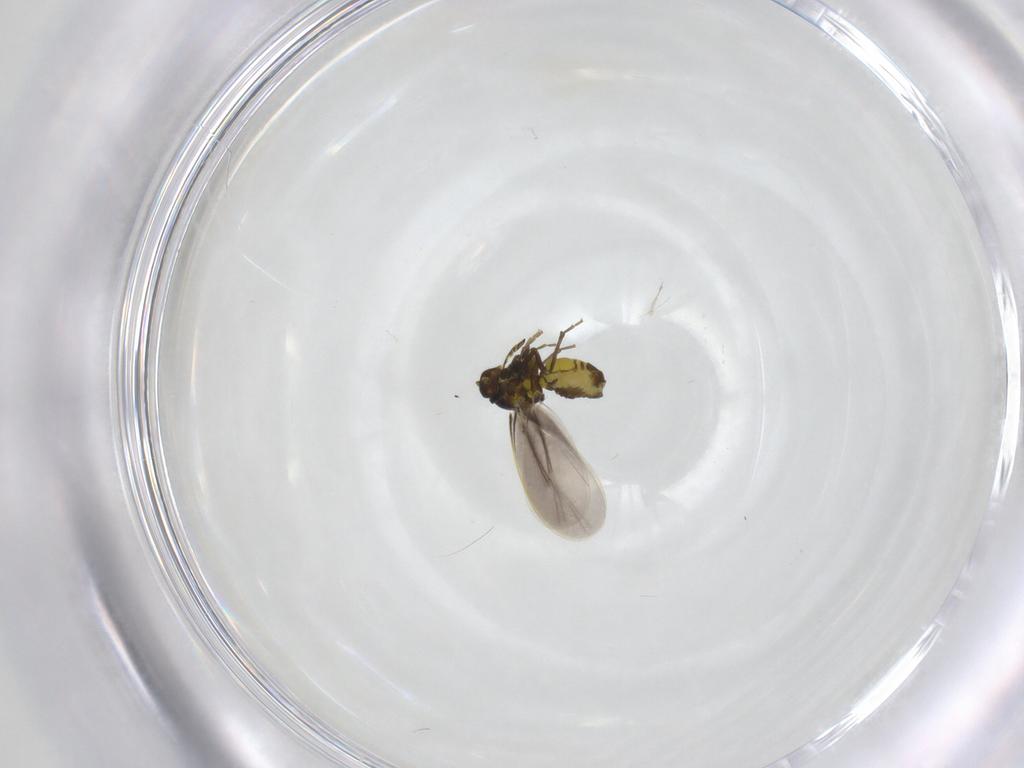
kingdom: Animalia
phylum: Arthropoda
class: Insecta
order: Hemiptera
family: Aleyrodidae
